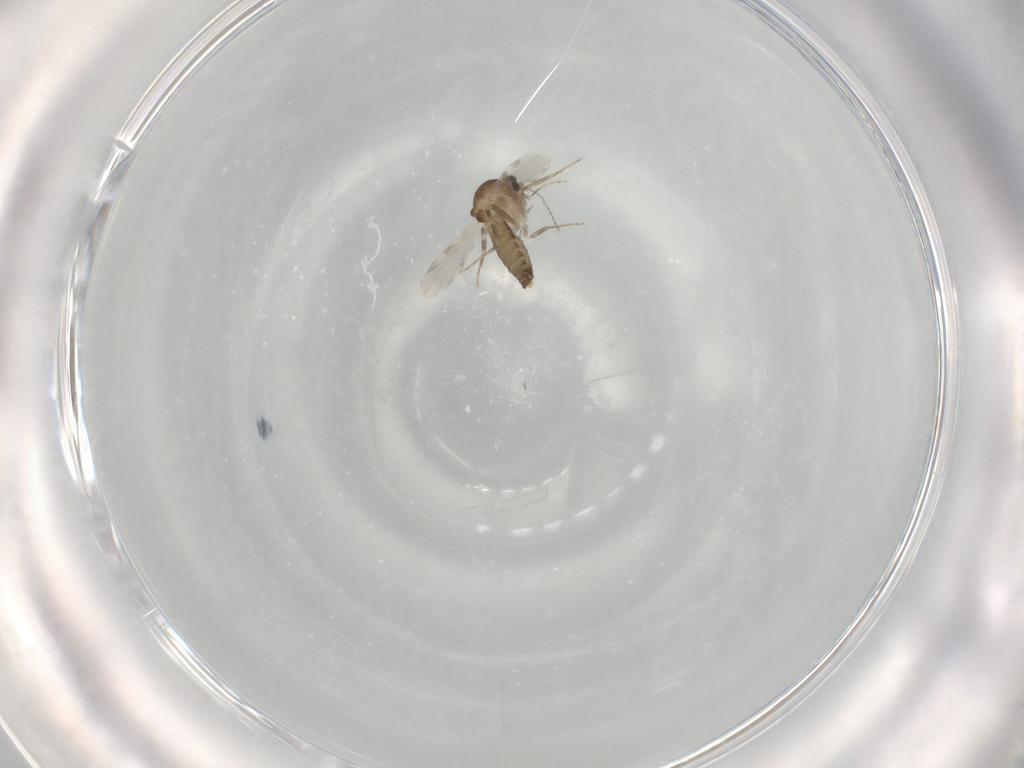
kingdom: Animalia
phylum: Arthropoda
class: Insecta
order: Diptera
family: Ceratopogonidae
